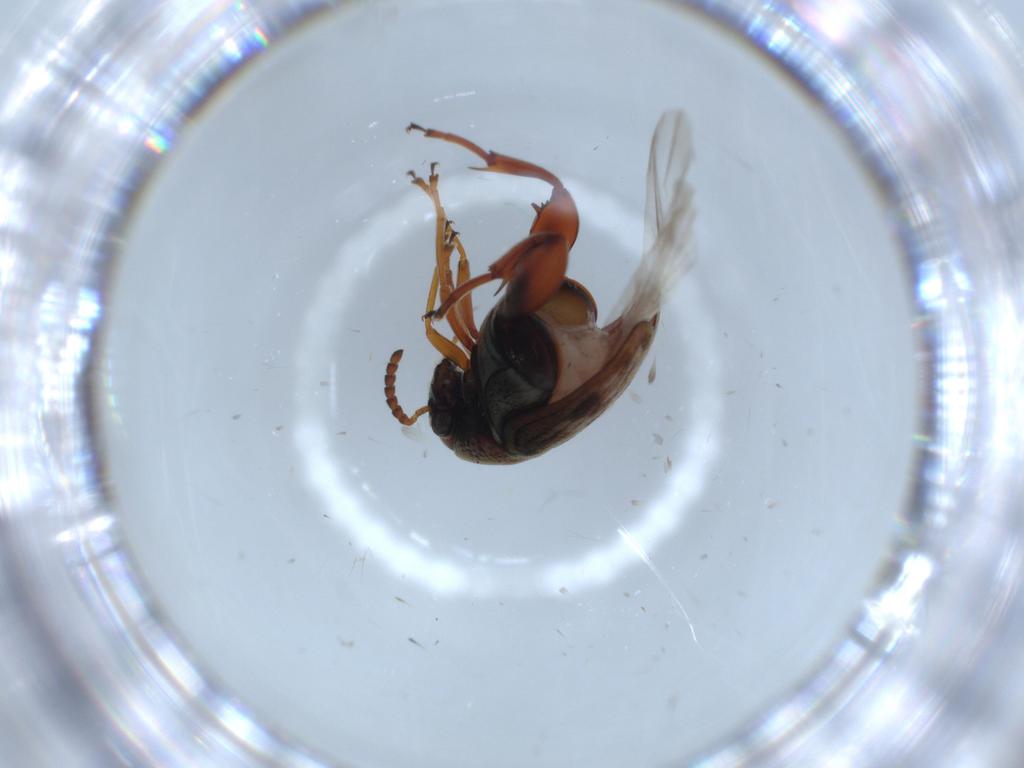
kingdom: Animalia
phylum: Arthropoda
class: Insecta
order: Coleoptera
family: Chrysomelidae
